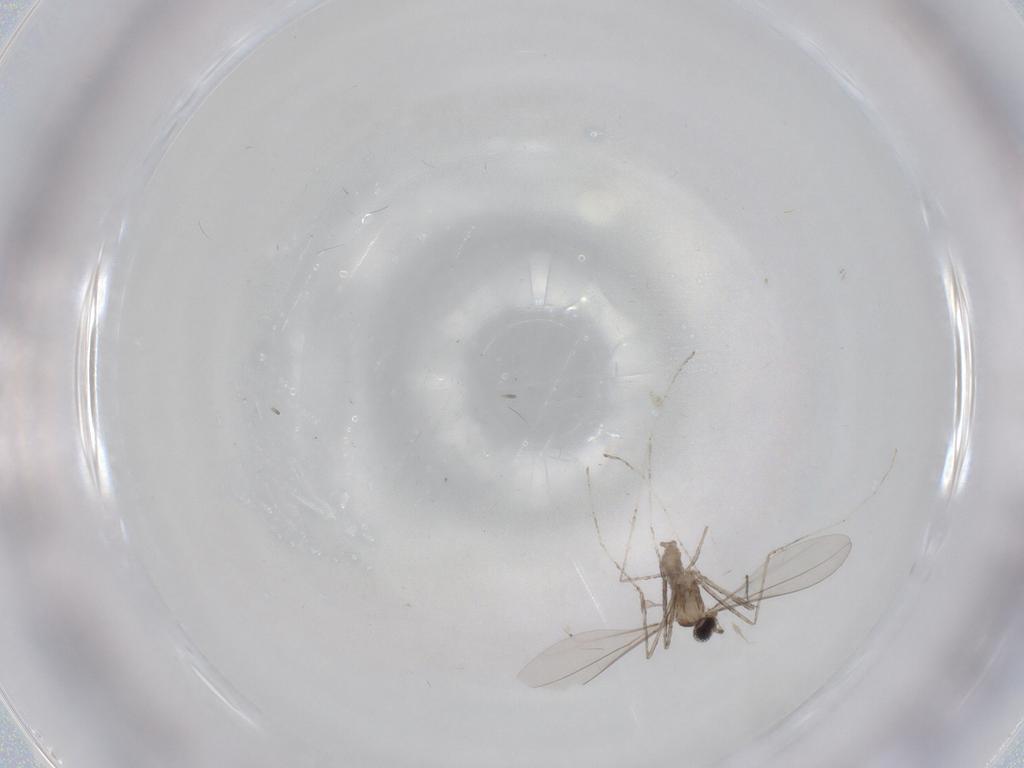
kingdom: Animalia
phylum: Arthropoda
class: Insecta
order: Diptera
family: Cecidomyiidae
